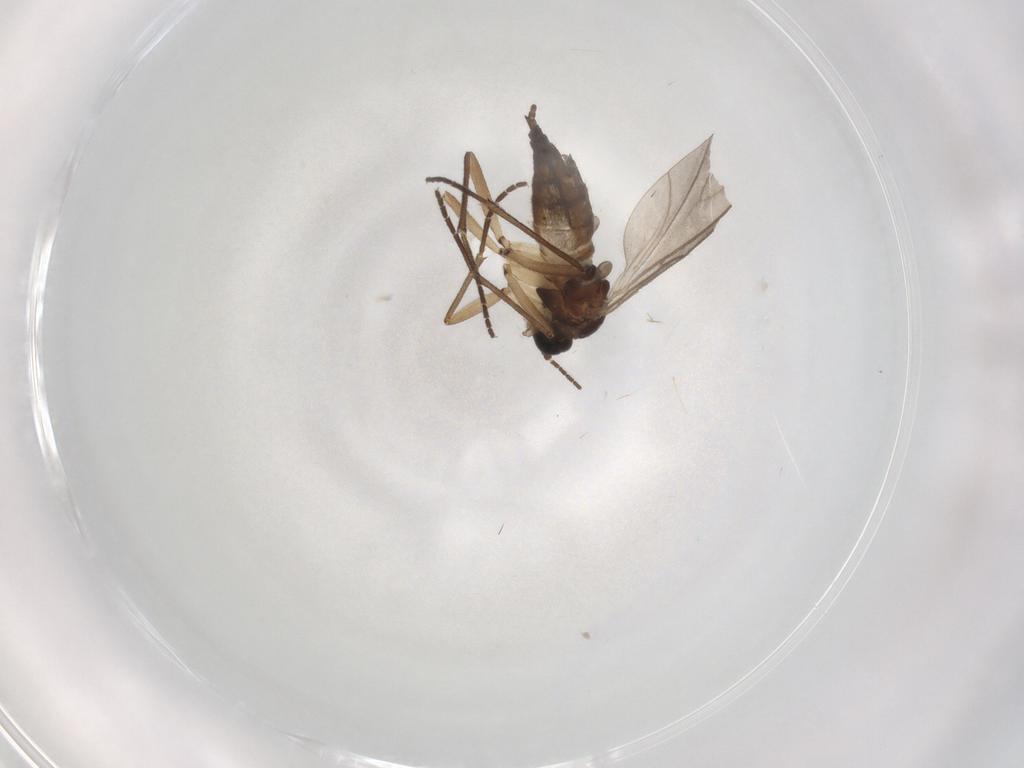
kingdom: Animalia
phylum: Arthropoda
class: Insecta
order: Diptera
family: Sciaridae
